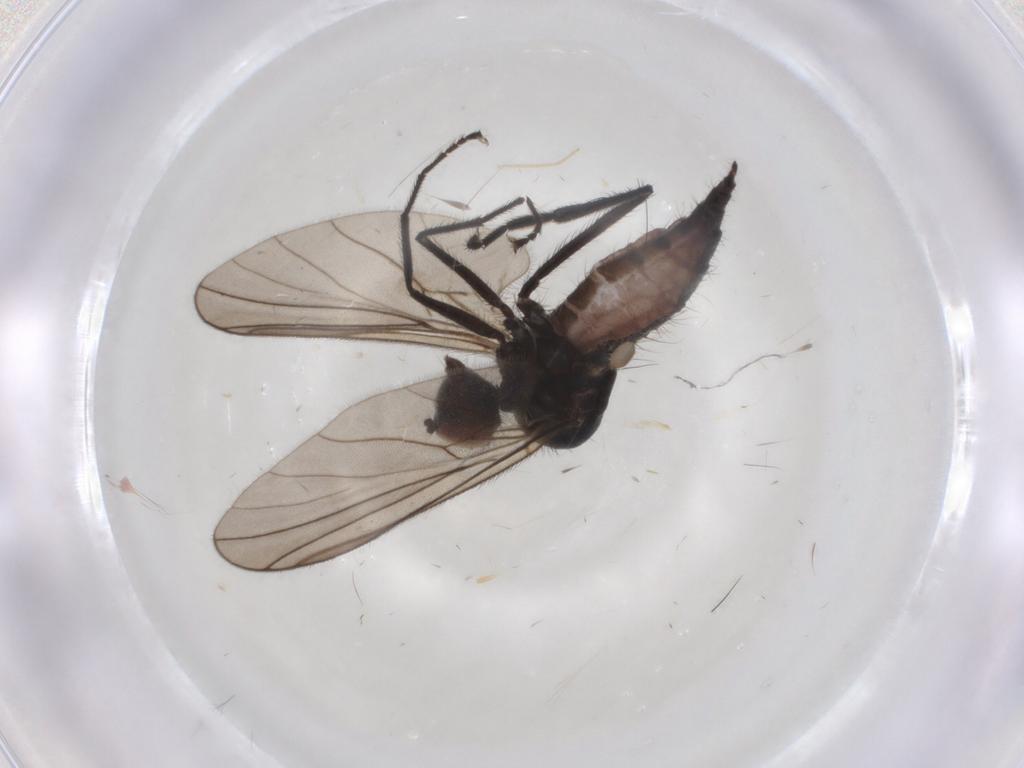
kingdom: Animalia
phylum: Arthropoda
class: Insecta
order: Diptera
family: Hybotidae
